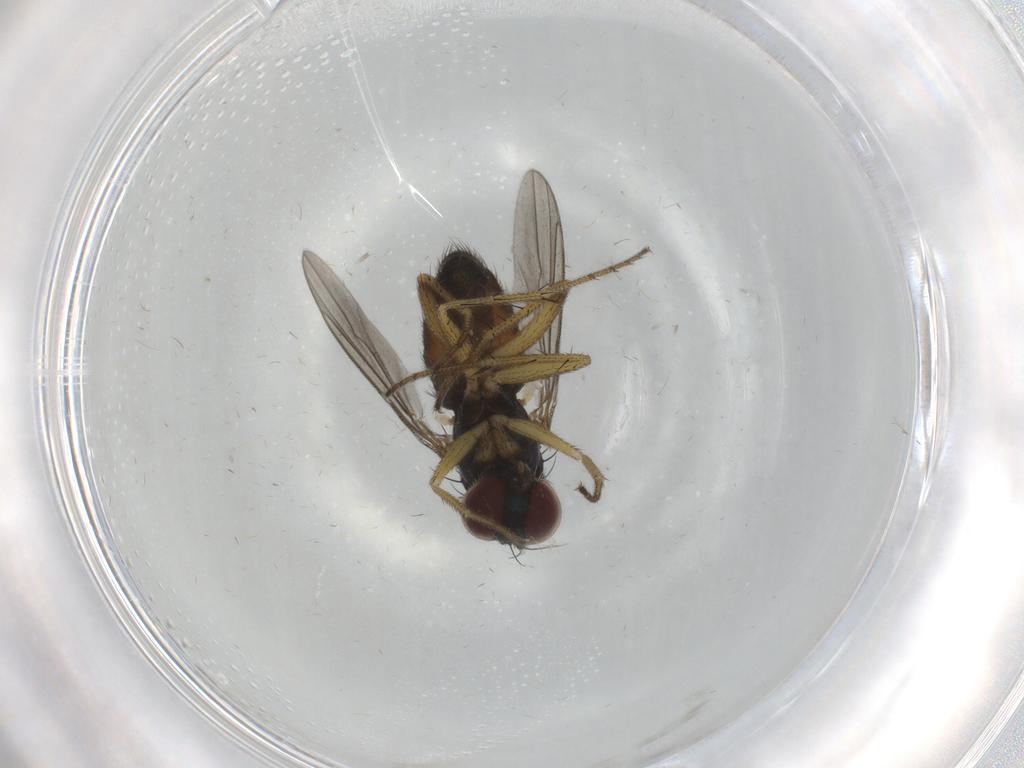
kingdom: Animalia
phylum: Arthropoda
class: Insecta
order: Diptera
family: Dolichopodidae
